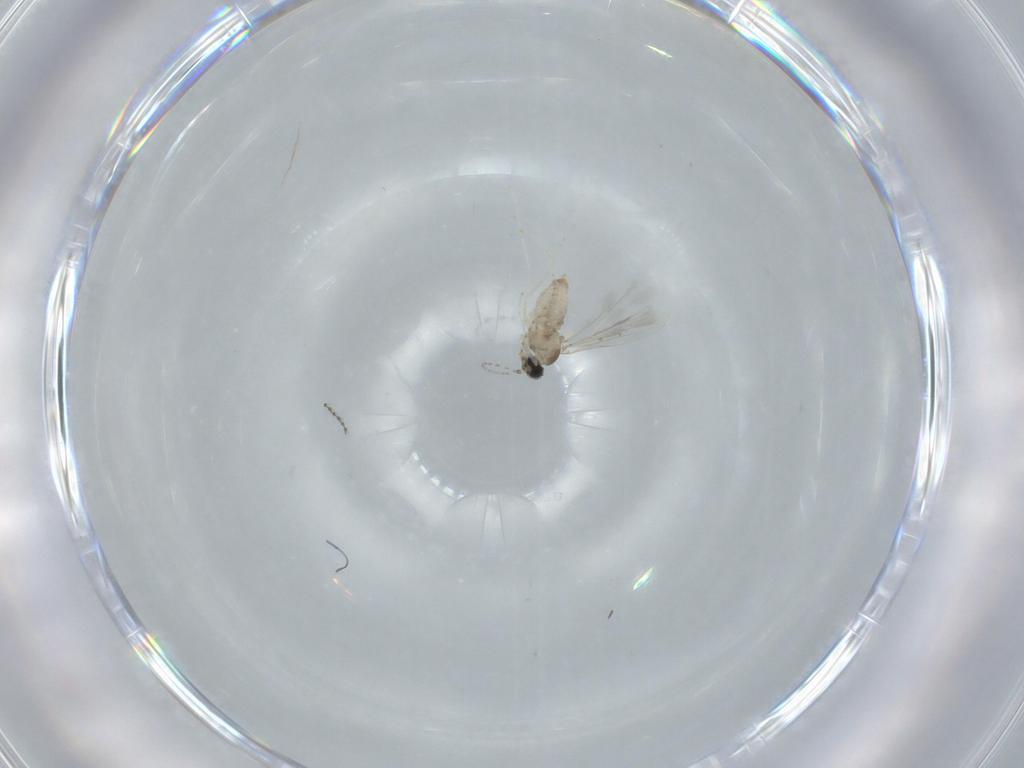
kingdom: Animalia
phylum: Arthropoda
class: Insecta
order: Diptera
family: Cecidomyiidae
